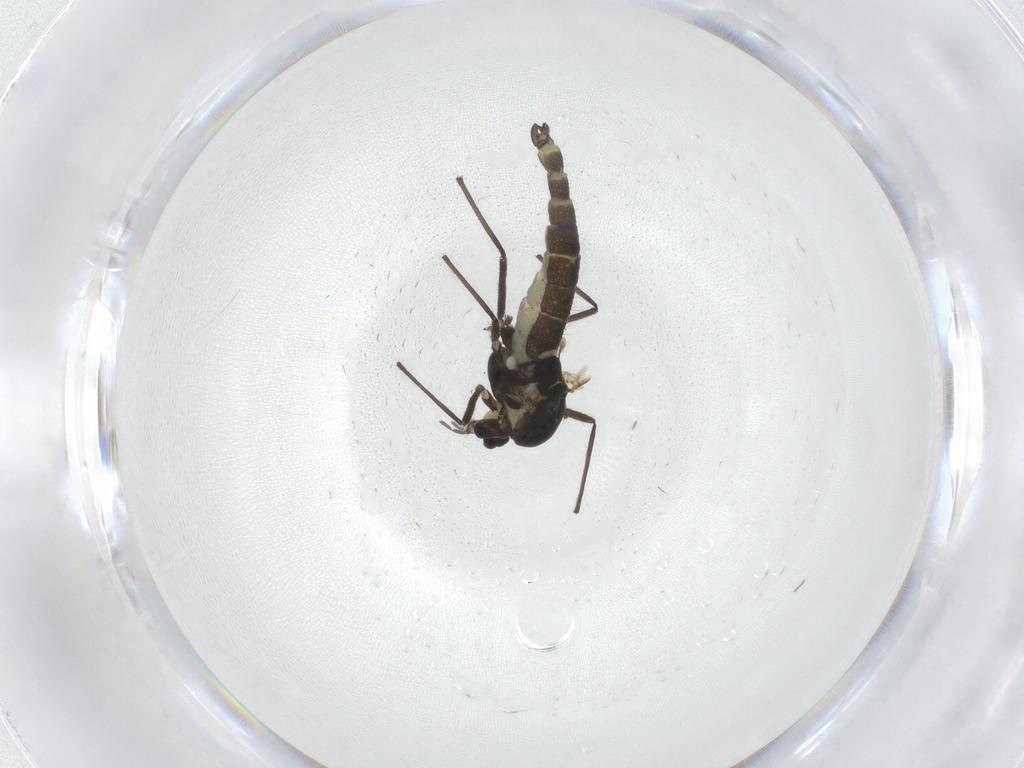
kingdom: Animalia
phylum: Arthropoda
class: Insecta
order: Diptera
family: Chironomidae
